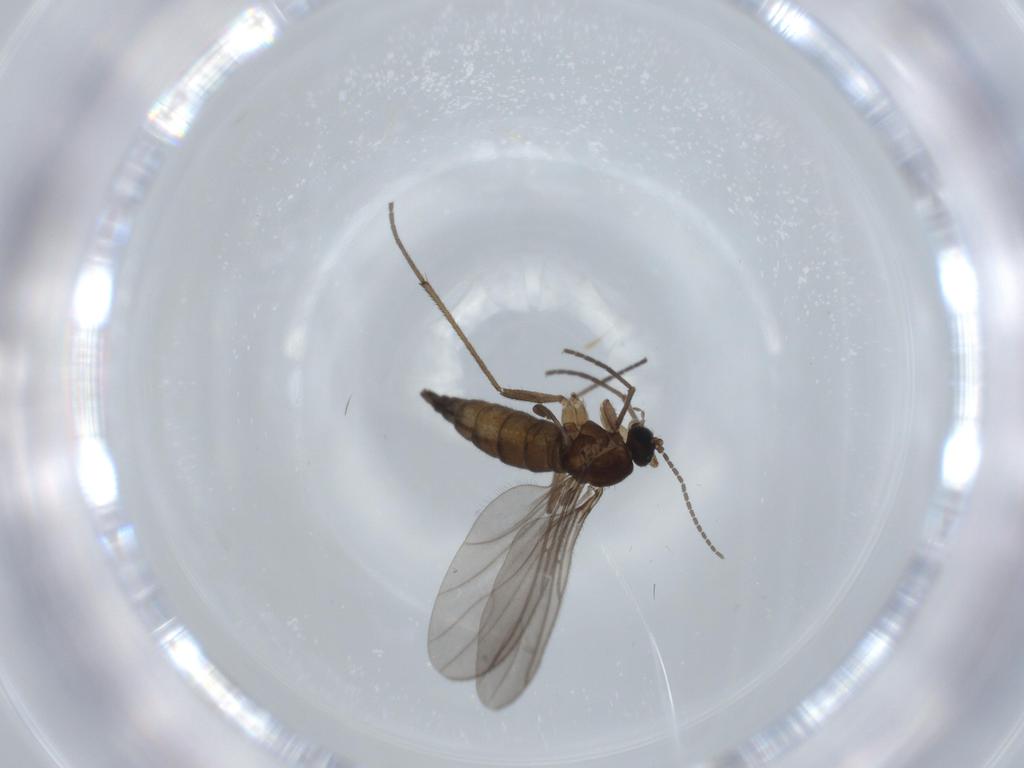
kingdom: Animalia
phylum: Arthropoda
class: Insecta
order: Diptera
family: Sciaridae
